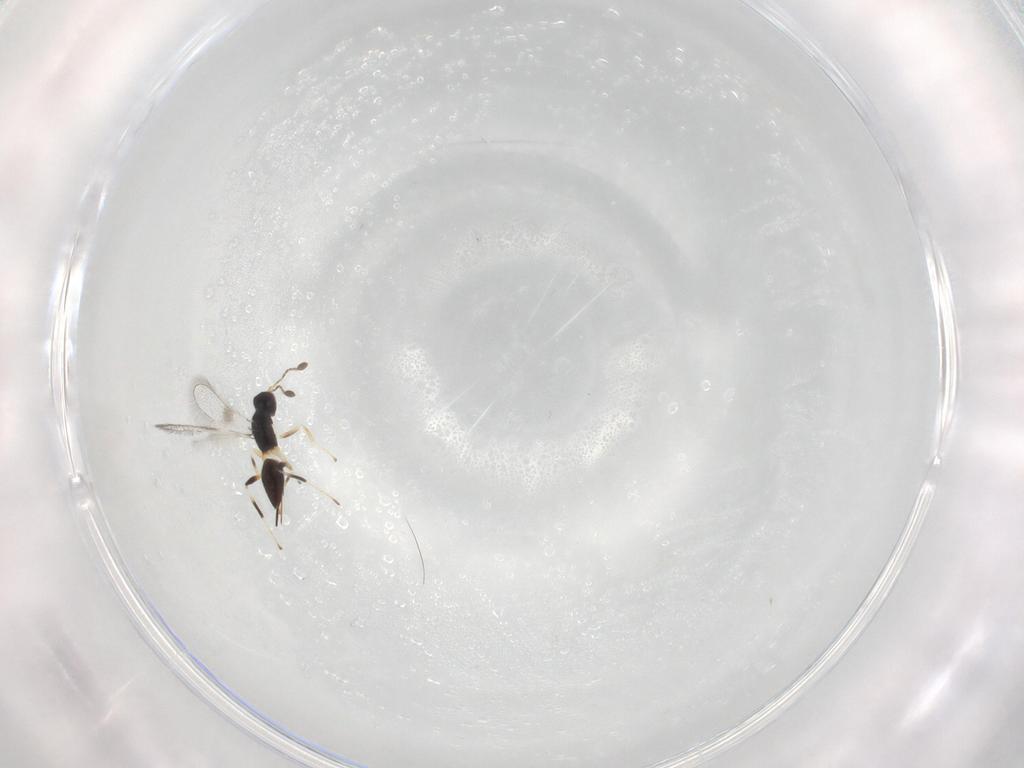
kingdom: Animalia
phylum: Arthropoda
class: Insecta
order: Hymenoptera
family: Mymaridae
